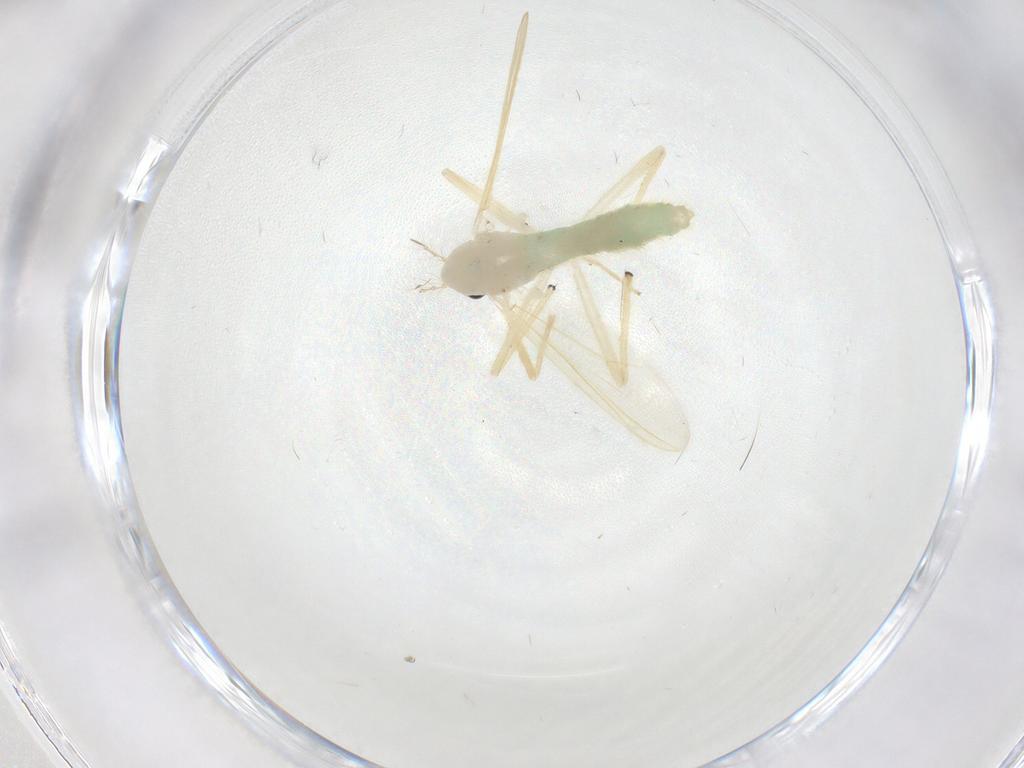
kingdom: Animalia
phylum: Arthropoda
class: Insecta
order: Diptera
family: Chironomidae
